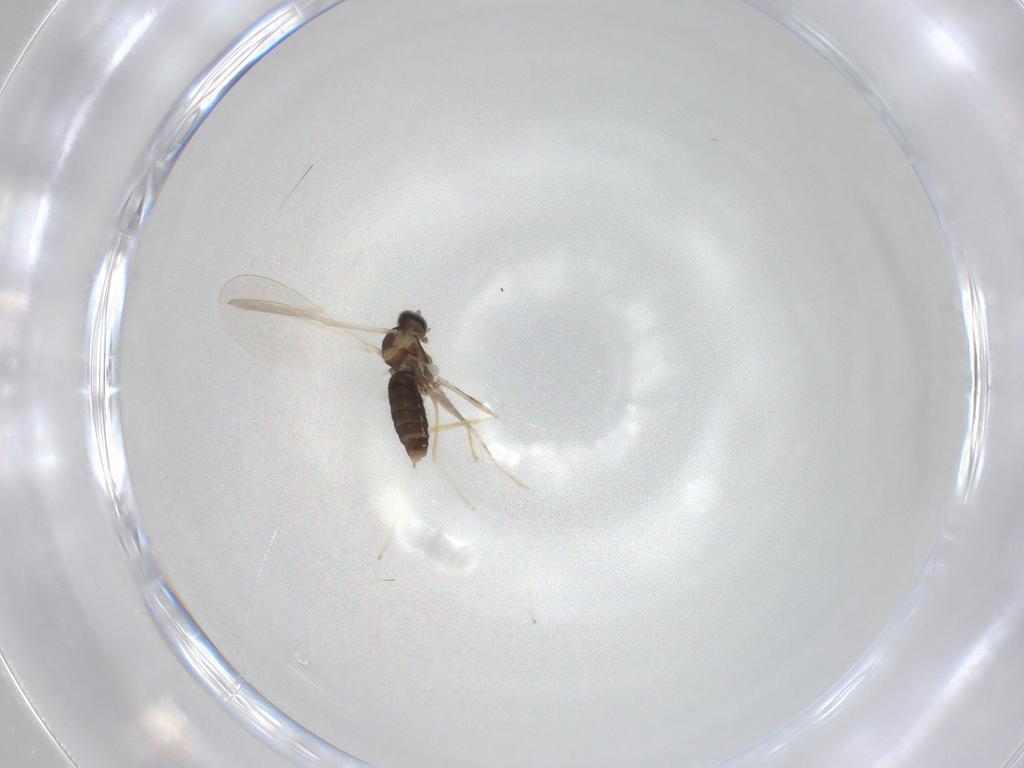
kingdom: Animalia
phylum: Arthropoda
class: Insecta
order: Diptera
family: Cecidomyiidae
